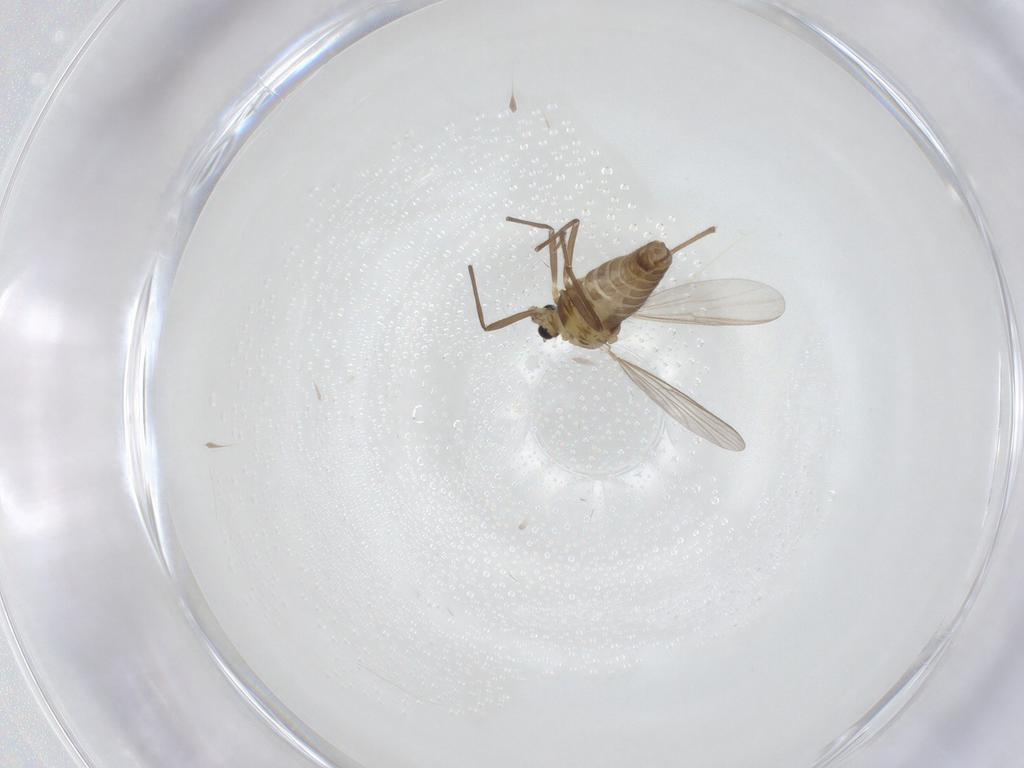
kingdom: Animalia
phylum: Arthropoda
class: Insecta
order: Diptera
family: Chironomidae
